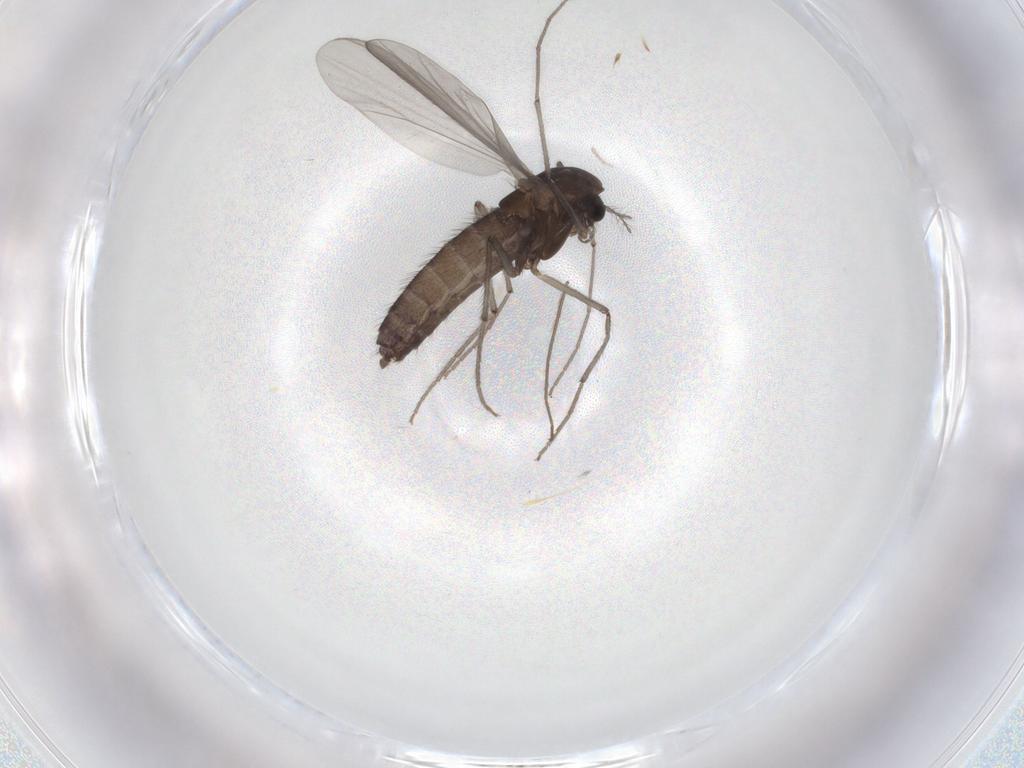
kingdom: Animalia
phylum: Arthropoda
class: Insecta
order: Diptera
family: Chironomidae
